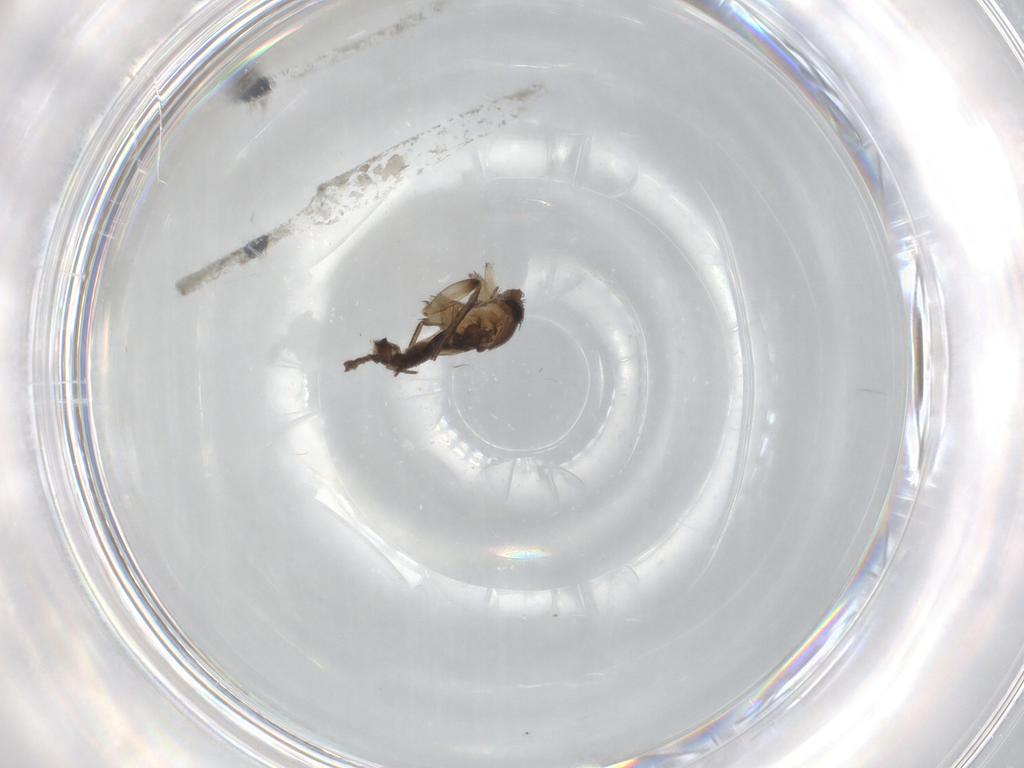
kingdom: Animalia
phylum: Arthropoda
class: Insecta
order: Diptera
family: Phoridae
